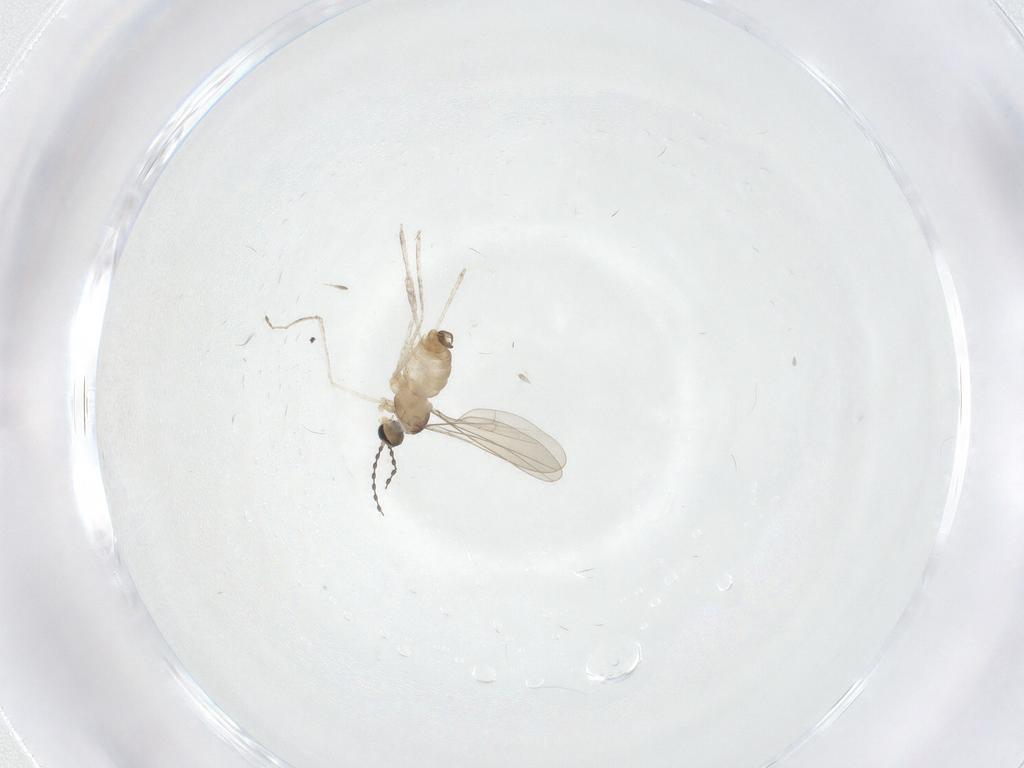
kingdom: Animalia
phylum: Arthropoda
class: Insecta
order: Diptera
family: Cecidomyiidae
